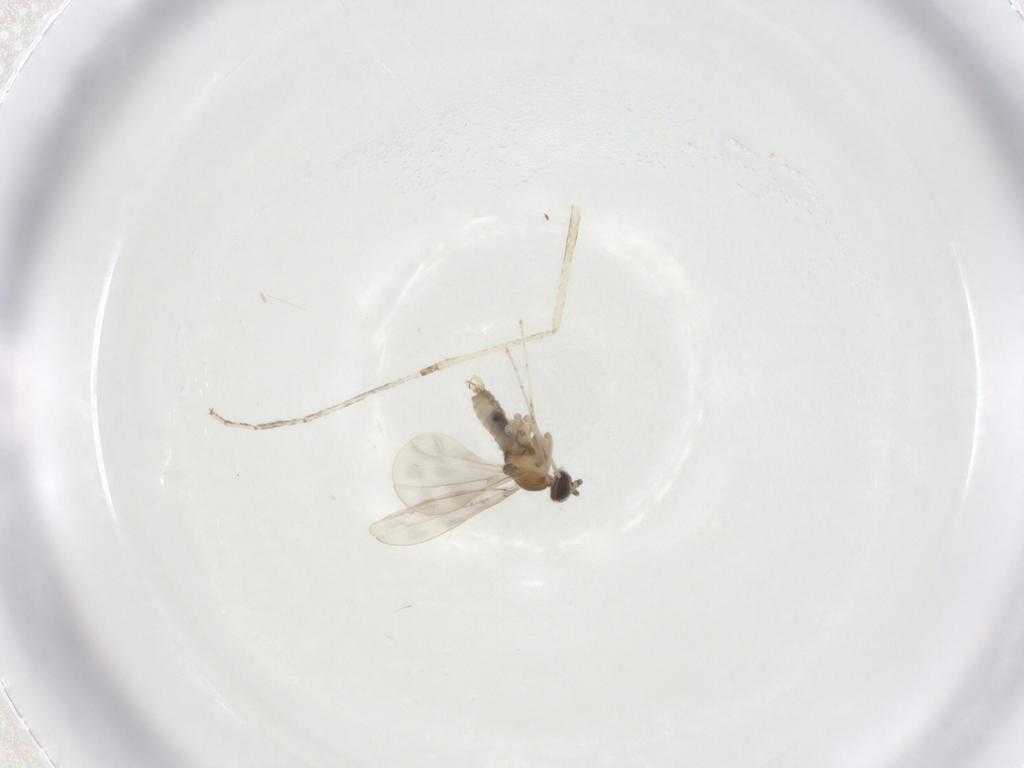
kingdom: Animalia
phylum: Arthropoda
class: Insecta
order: Diptera
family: Cecidomyiidae
